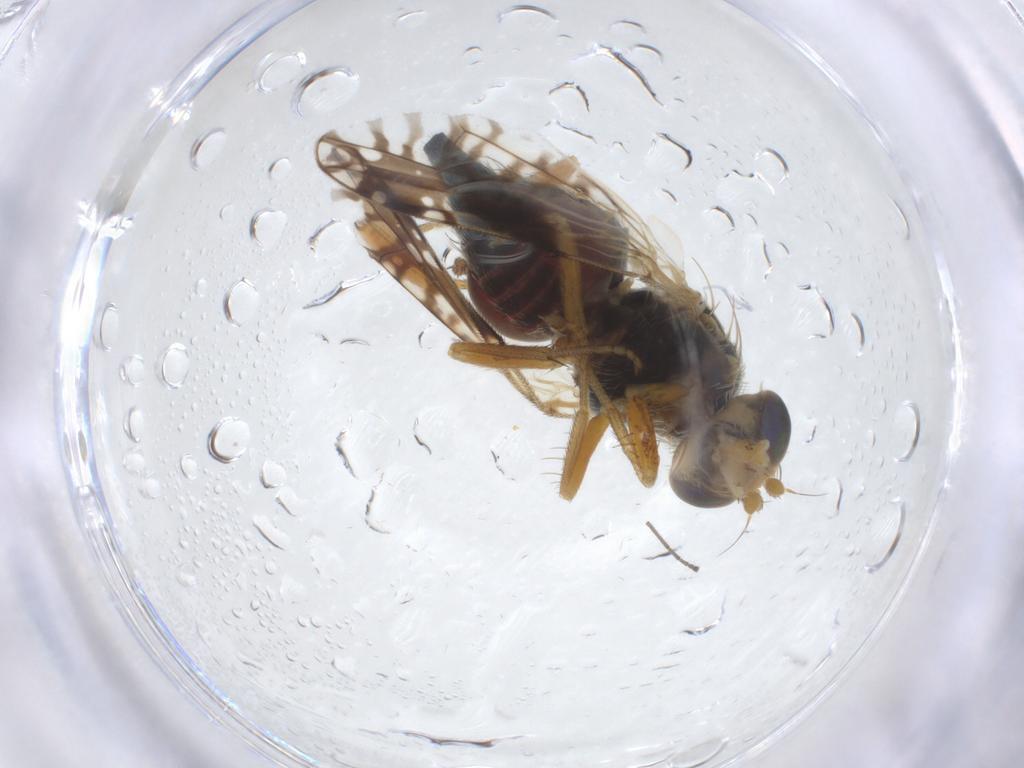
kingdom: Animalia
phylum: Arthropoda
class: Insecta
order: Diptera
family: Tephritidae
